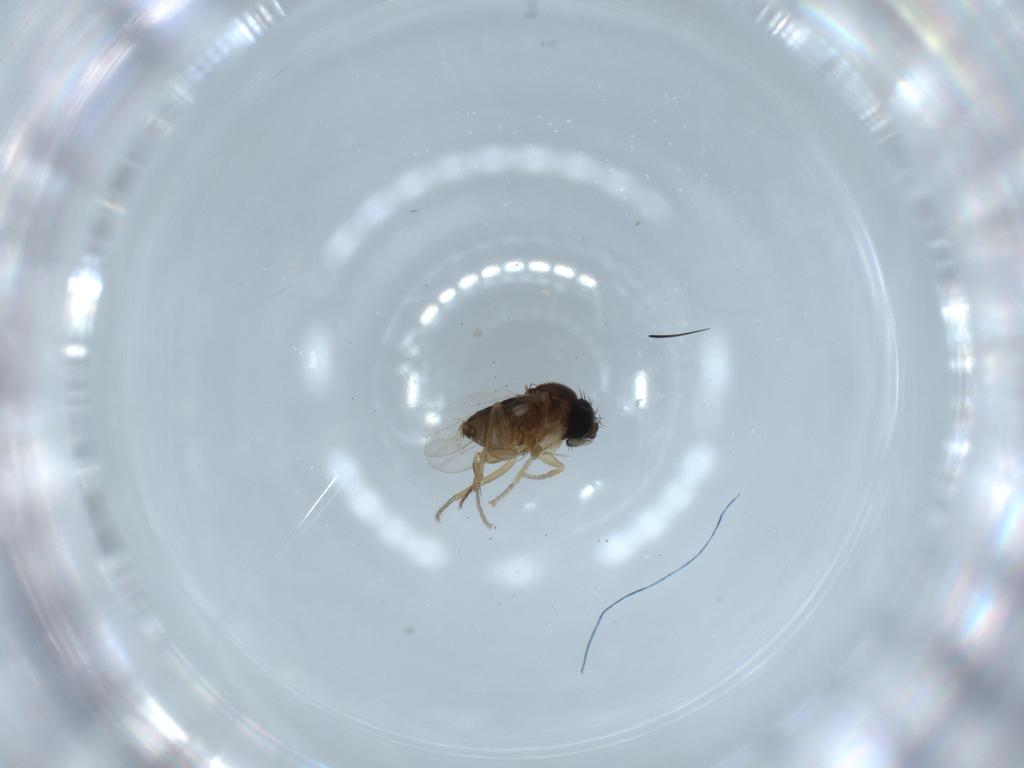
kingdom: Animalia
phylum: Arthropoda
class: Insecta
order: Diptera
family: Phoridae
